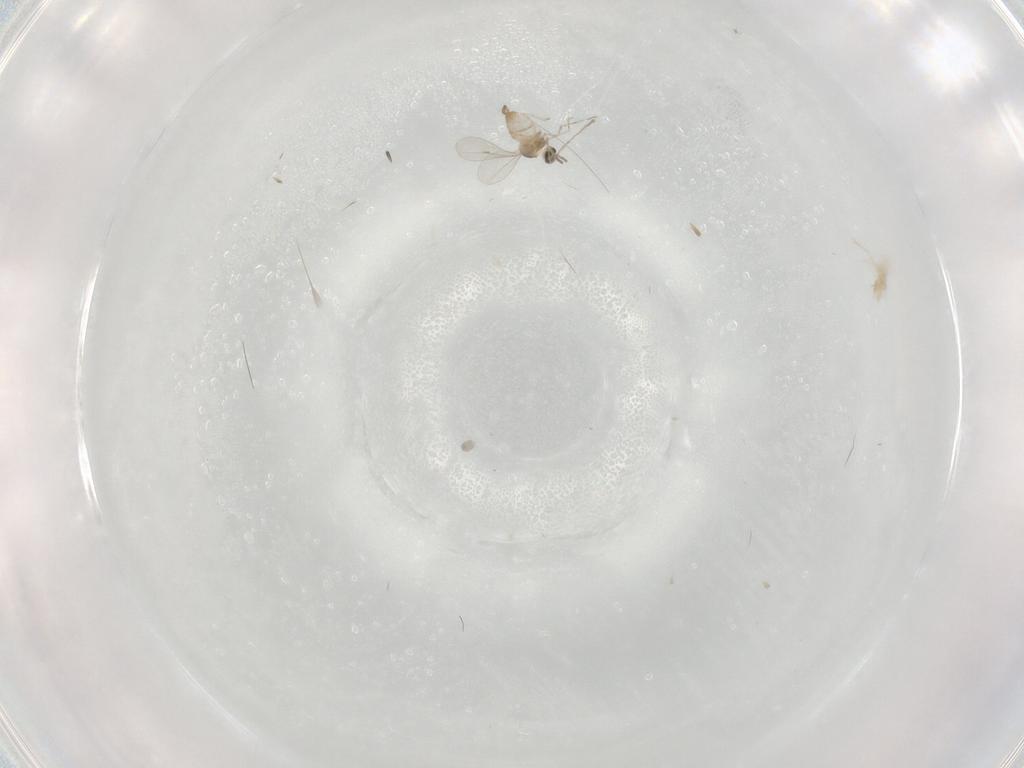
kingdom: Animalia
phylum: Arthropoda
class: Insecta
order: Diptera
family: Cecidomyiidae
